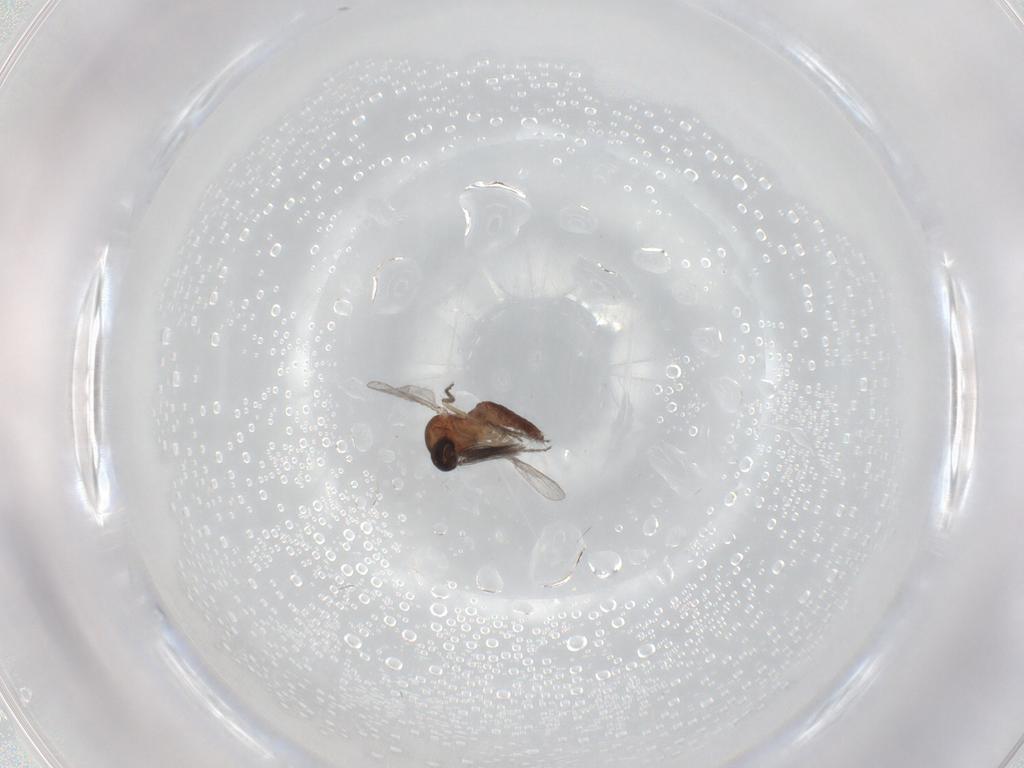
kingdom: Animalia
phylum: Arthropoda
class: Insecta
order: Diptera
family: Ceratopogonidae
